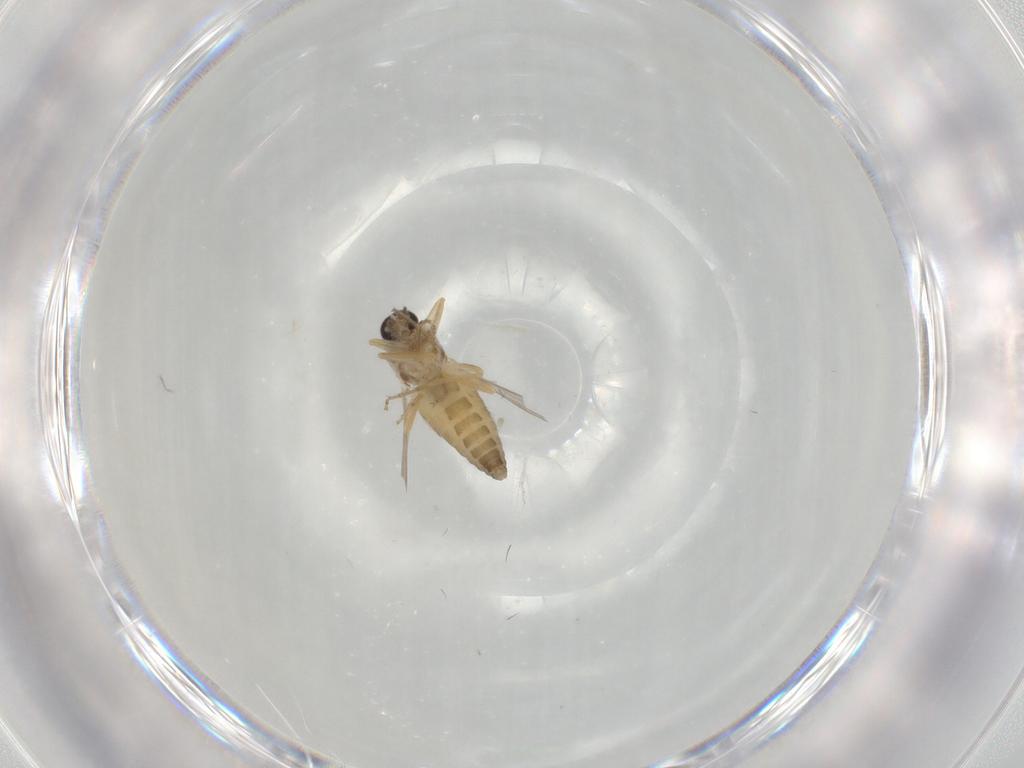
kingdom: Animalia
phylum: Arthropoda
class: Insecta
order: Diptera
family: Ceratopogonidae
